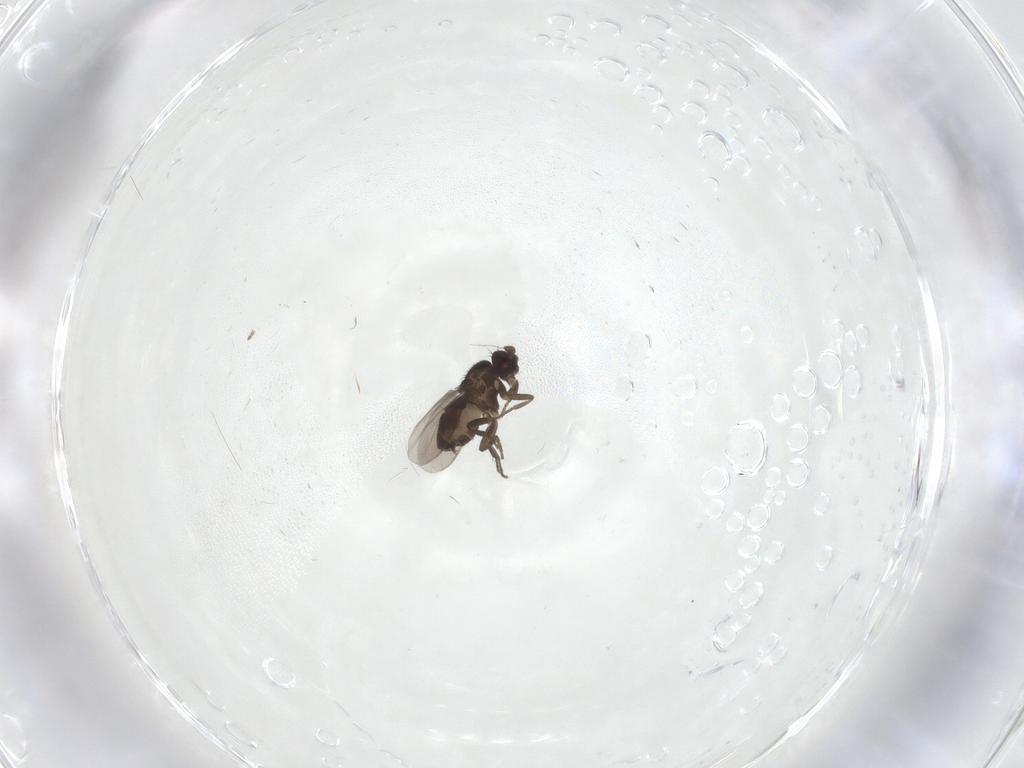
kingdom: Animalia
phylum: Arthropoda
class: Insecta
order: Diptera
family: Sphaeroceridae
